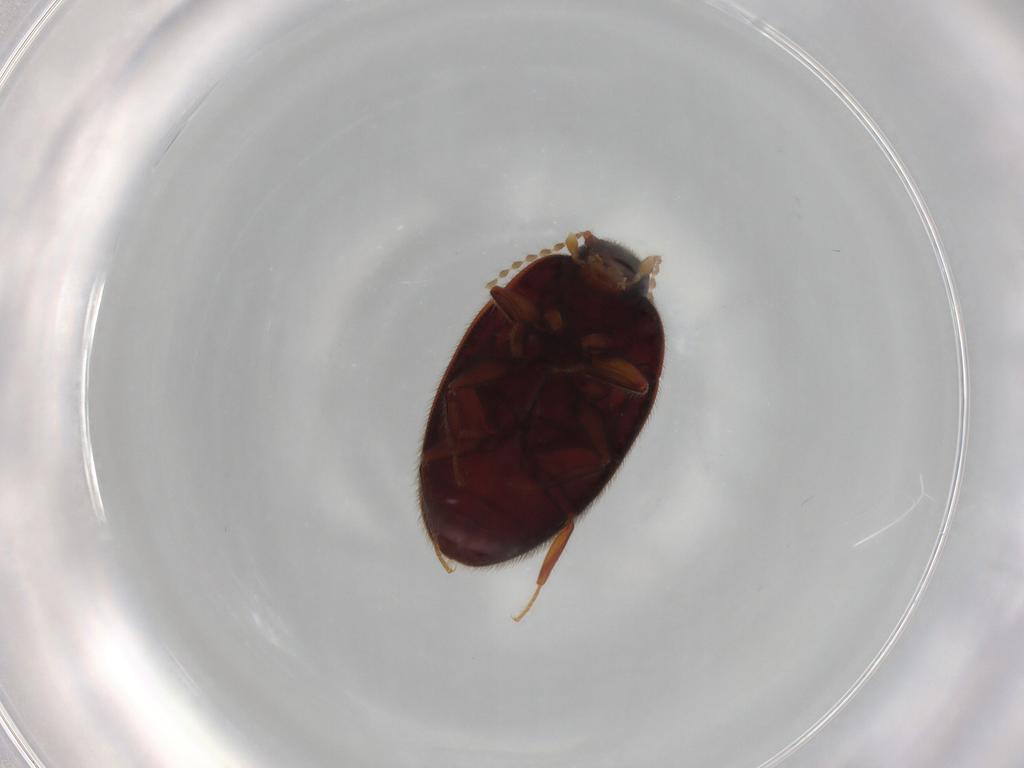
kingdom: Animalia
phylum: Arthropoda
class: Insecta
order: Coleoptera
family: Limnichidae
